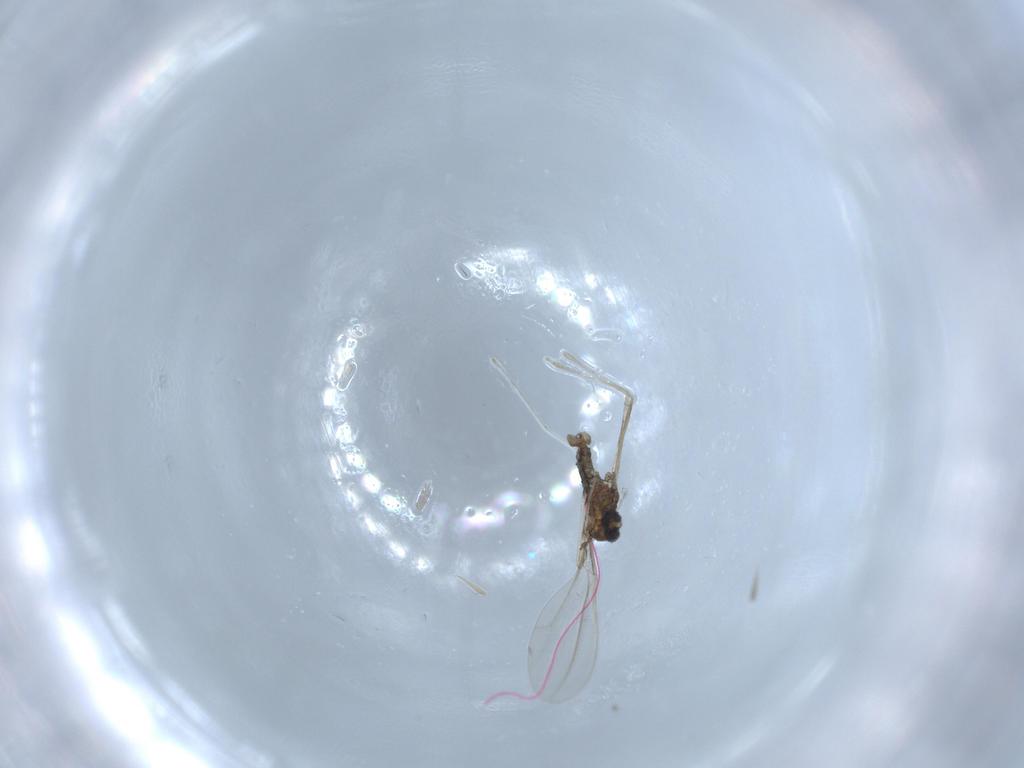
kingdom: Animalia
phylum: Arthropoda
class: Insecta
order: Diptera
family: Cecidomyiidae
